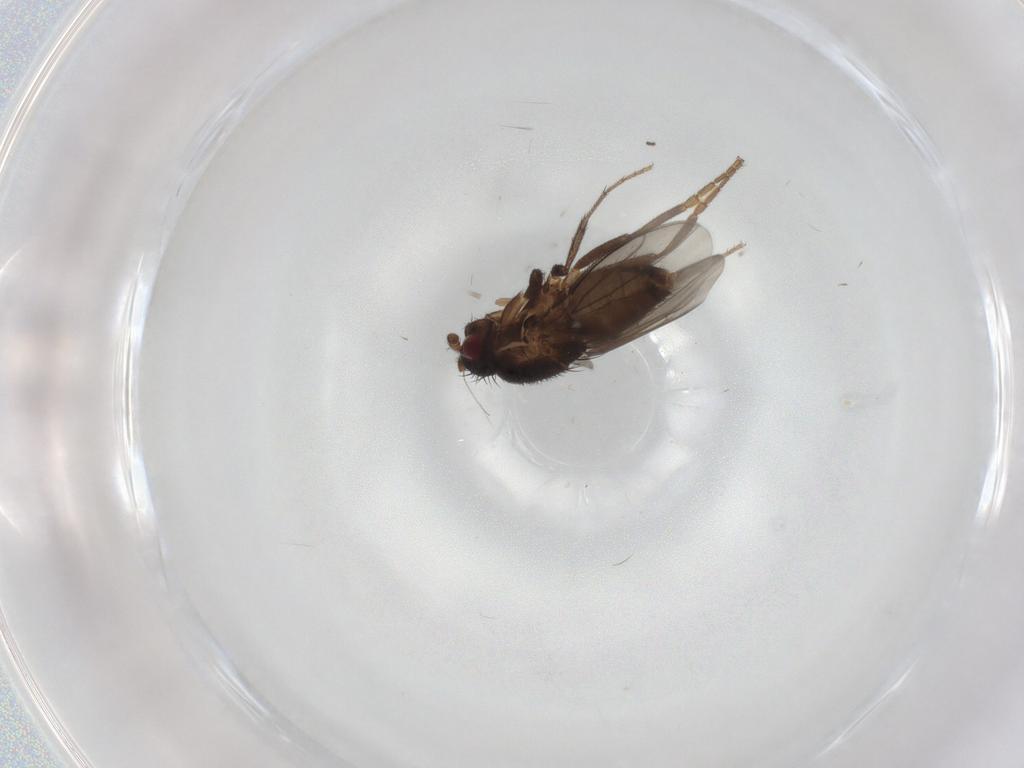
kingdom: Animalia
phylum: Arthropoda
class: Insecta
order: Diptera
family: Sphaeroceridae
